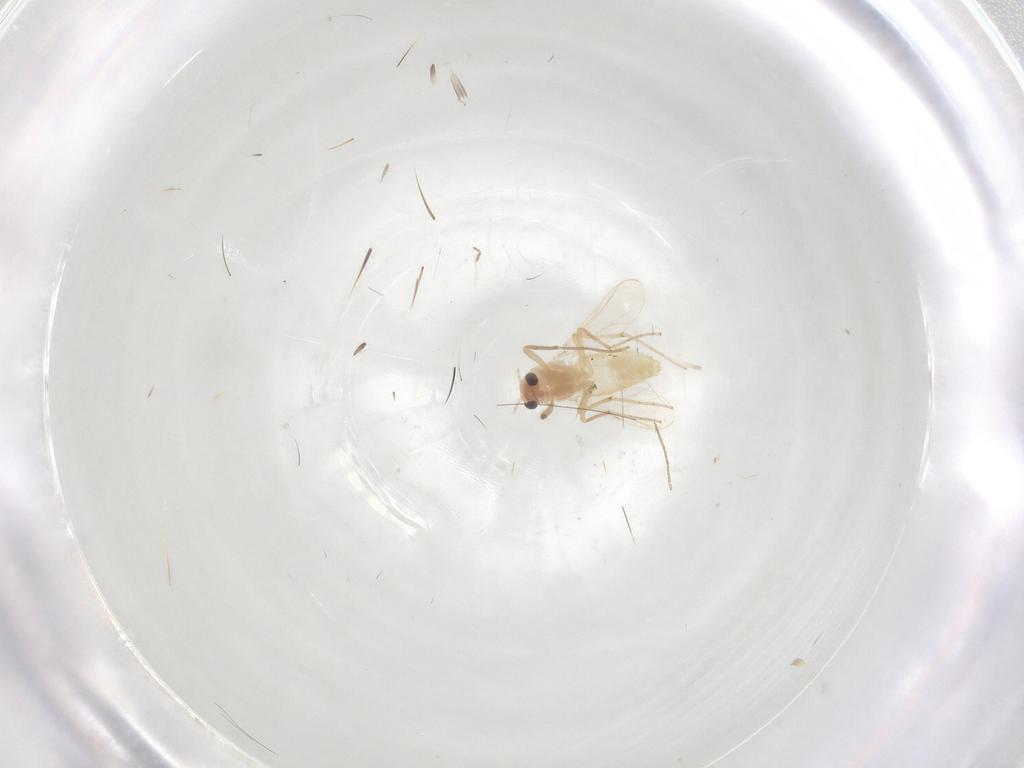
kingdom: Animalia
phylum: Arthropoda
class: Insecta
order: Diptera
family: Chironomidae
